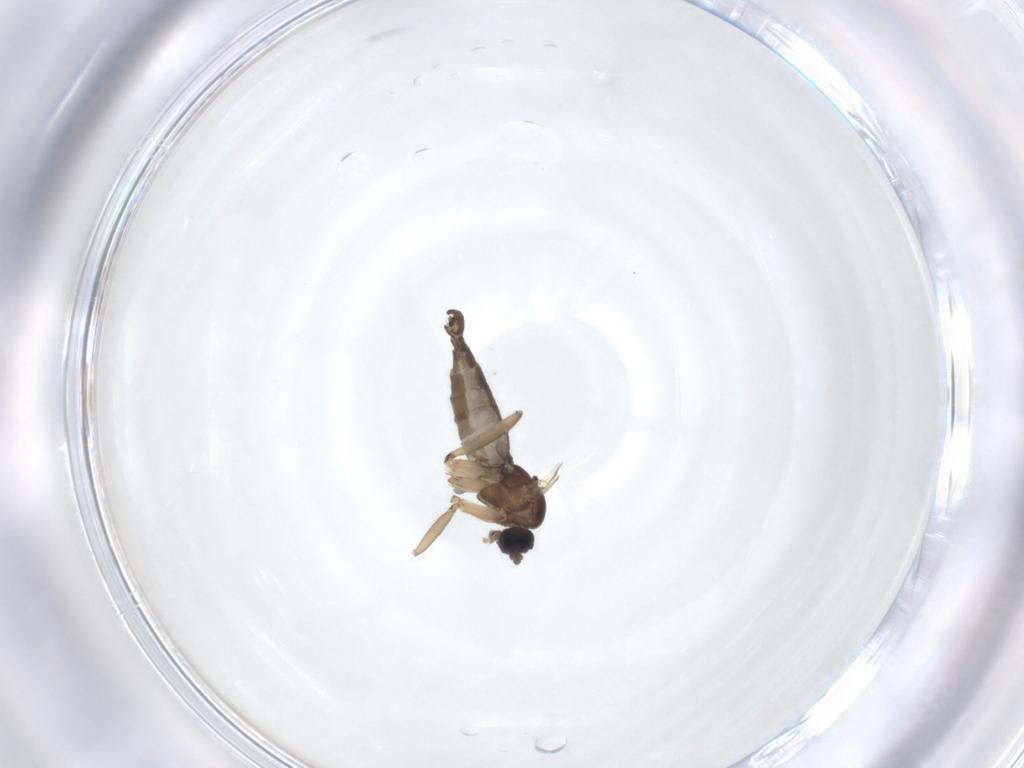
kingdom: Animalia
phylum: Arthropoda
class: Insecta
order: Diptera
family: Sciaridae
